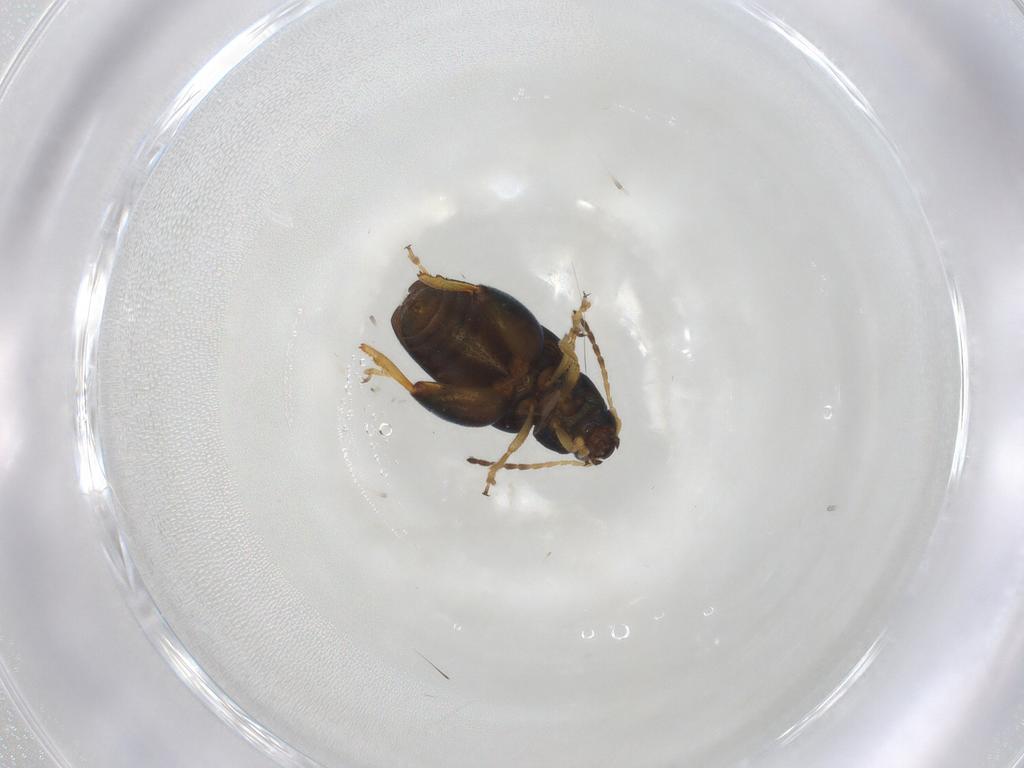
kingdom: Animalia
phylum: Arthropoda
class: Insecta
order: Coleoptera
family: Chrysomelidae
